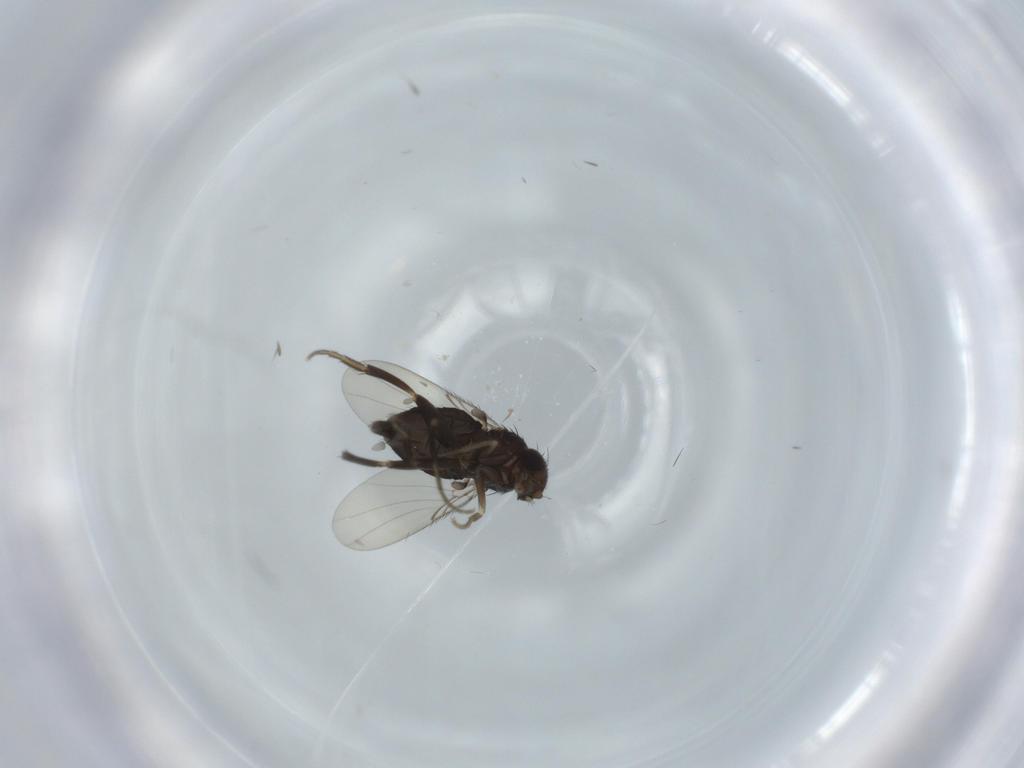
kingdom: Animalia
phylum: Arthropoda
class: Insecta
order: Diptera
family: Phoridae
